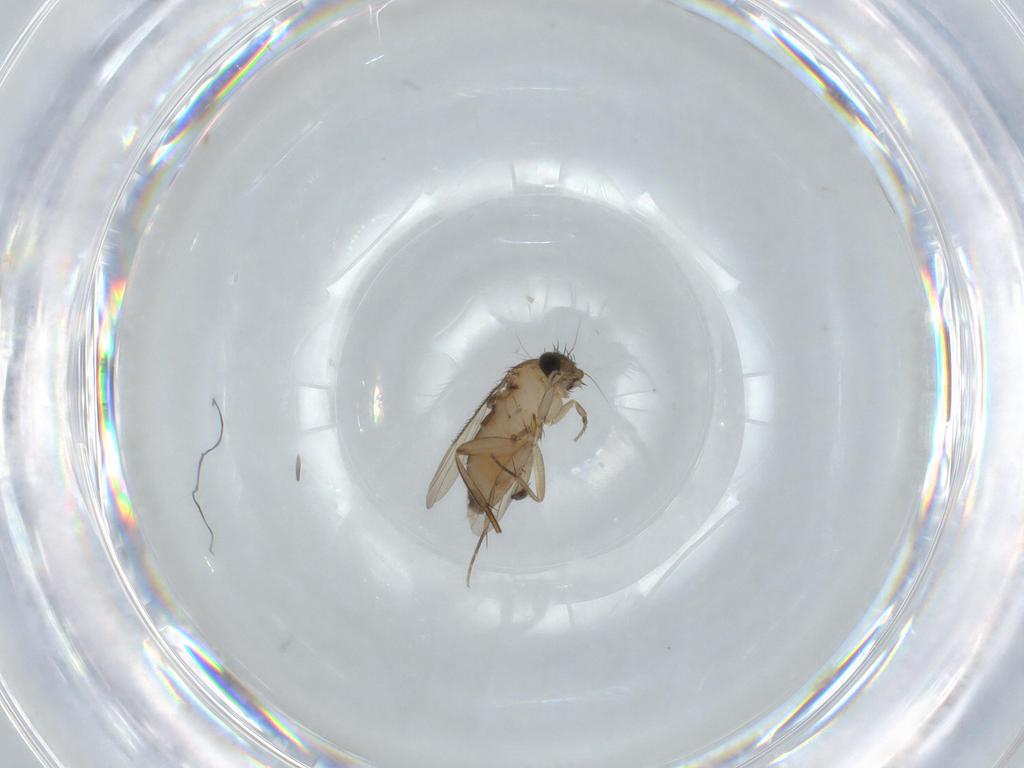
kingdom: Animalia
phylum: Arthropoda
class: Insecta
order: Diptera
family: Phoridae
